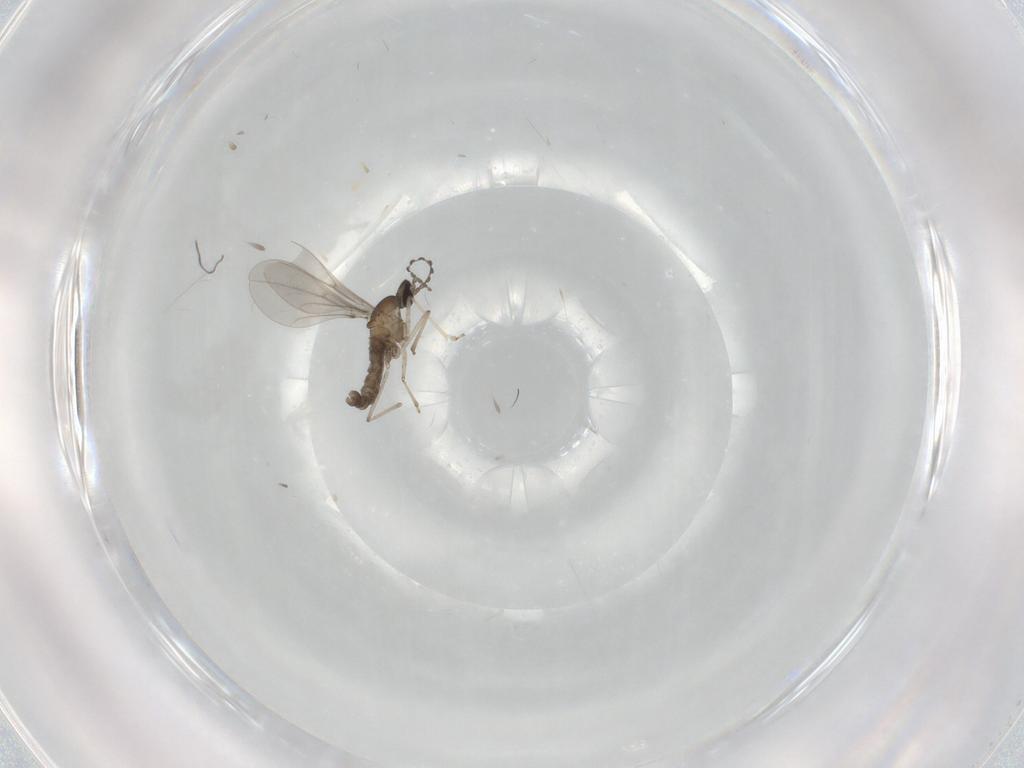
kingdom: Animalia
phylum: Arthropoda
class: Insecta
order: Diptera
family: Cecidomyiidae
